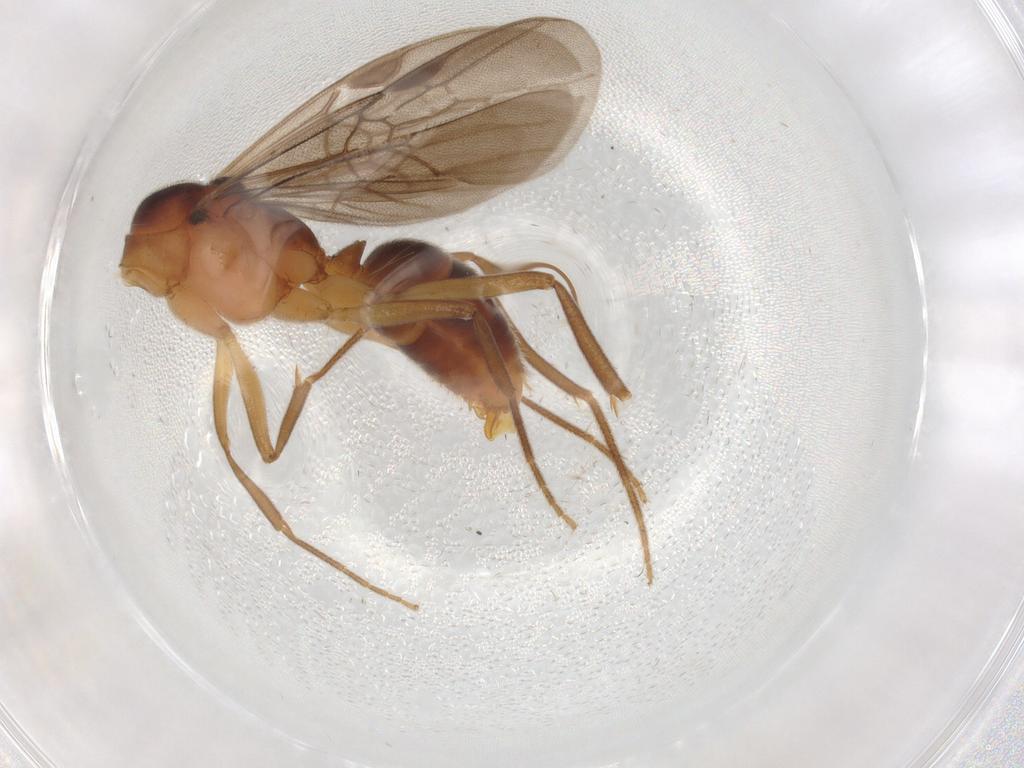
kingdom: Animalia
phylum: Arthropoda
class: Insecta
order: Hymenoptera
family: Formicidae
